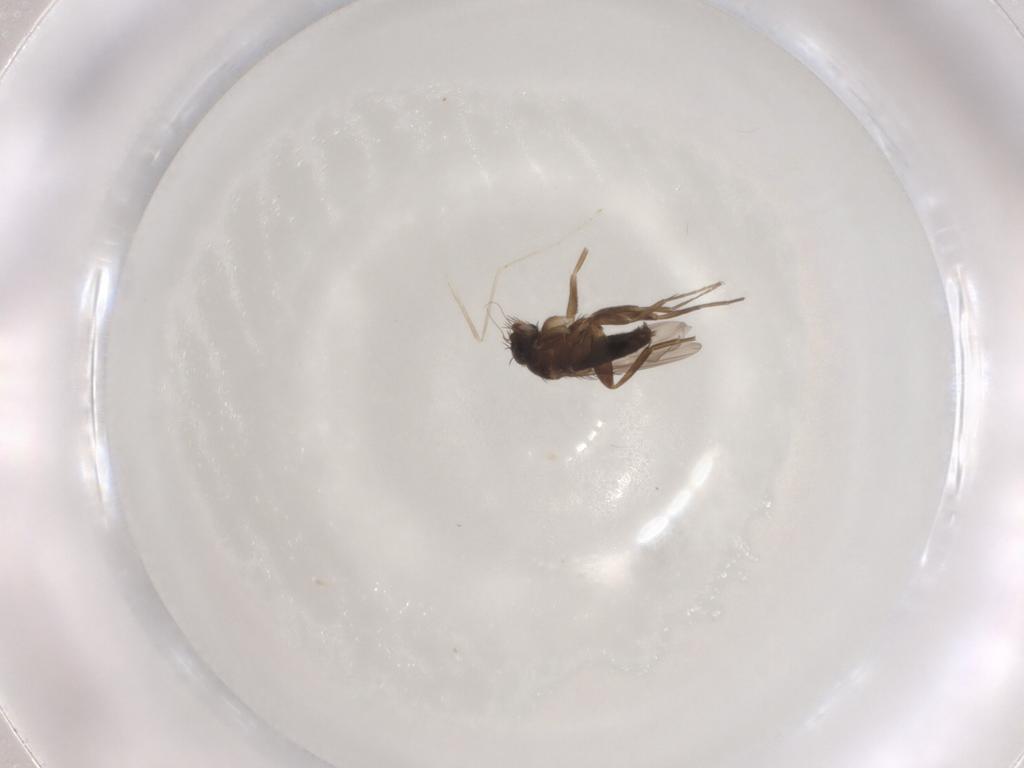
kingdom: Animalia
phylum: Arthropoda
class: Insecta
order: Diptera
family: Phoridae
